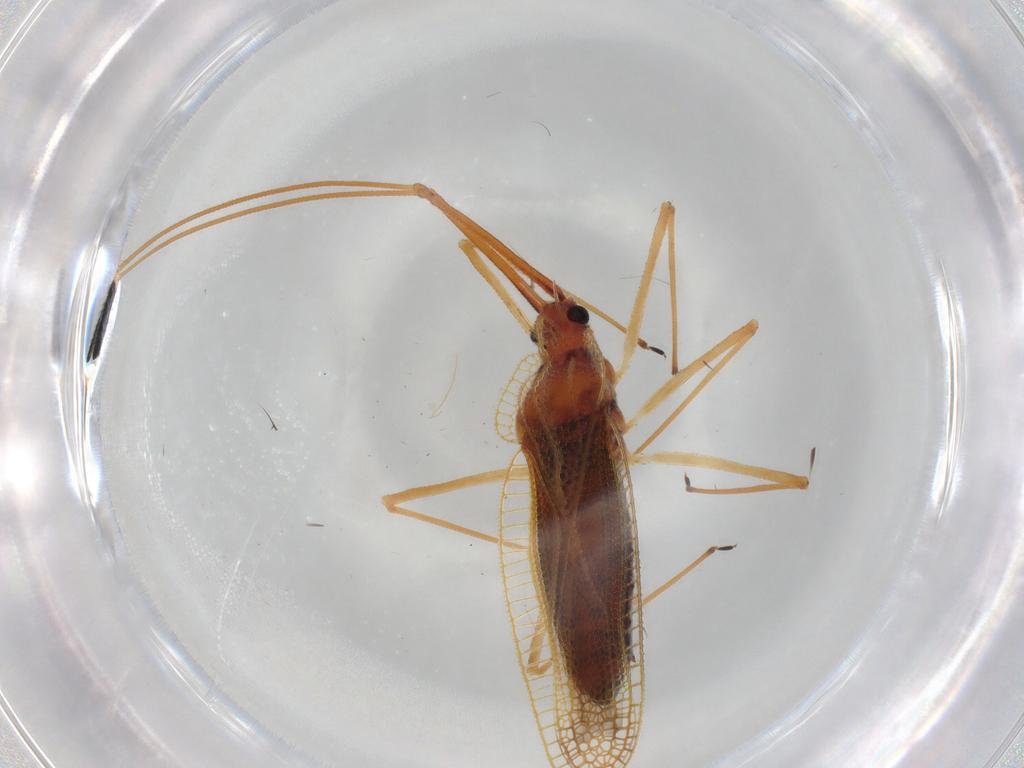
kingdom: Animalia
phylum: Arthropoda
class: Insecta
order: Hemiptera
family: Tingidae
